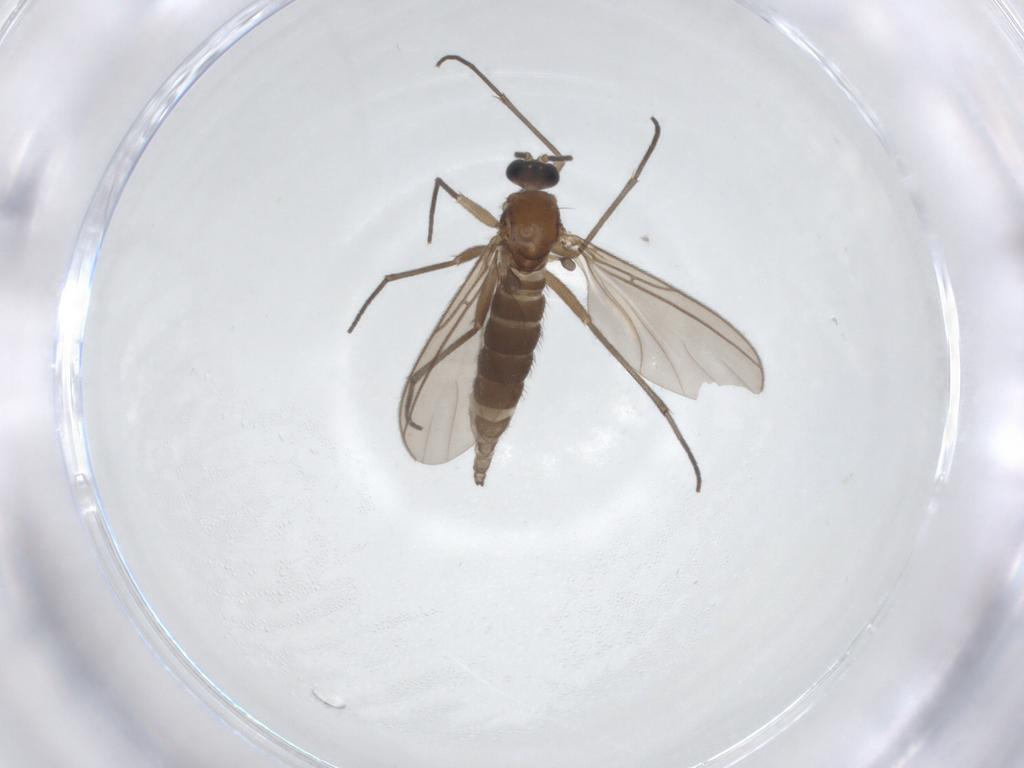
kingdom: Animalia
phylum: Arthropoda
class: Insecta
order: Diptera
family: Sciaridae
